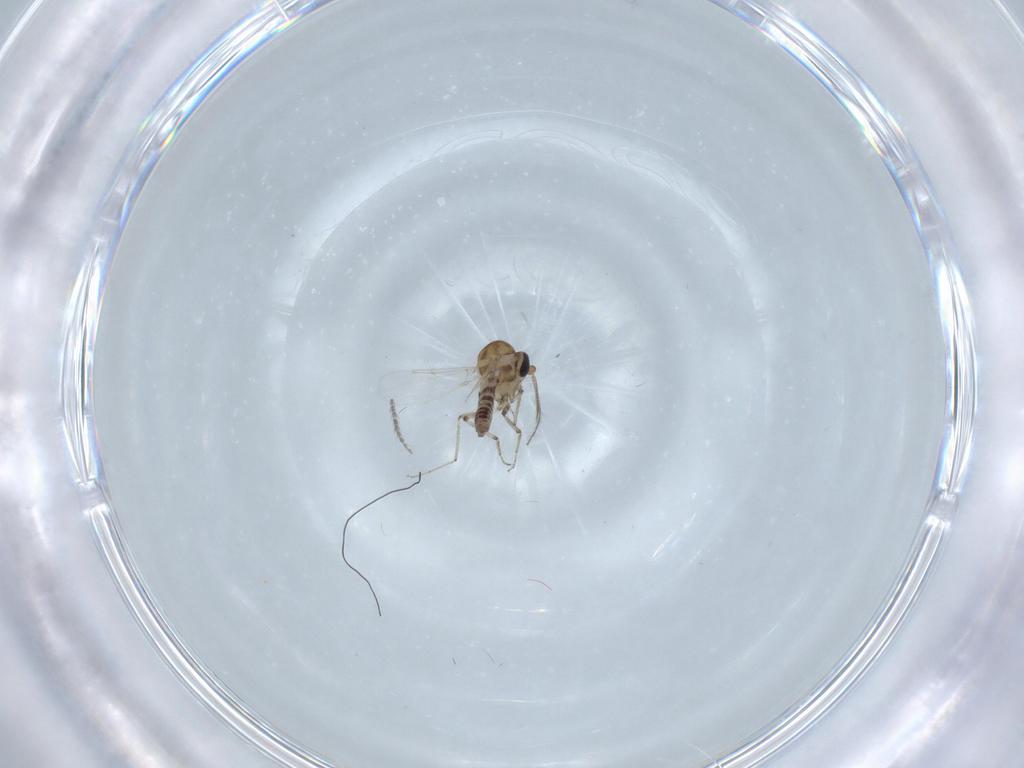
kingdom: Animalia
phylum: Arthropoda
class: Insecta
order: Diptera
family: Ceratopogonidae
